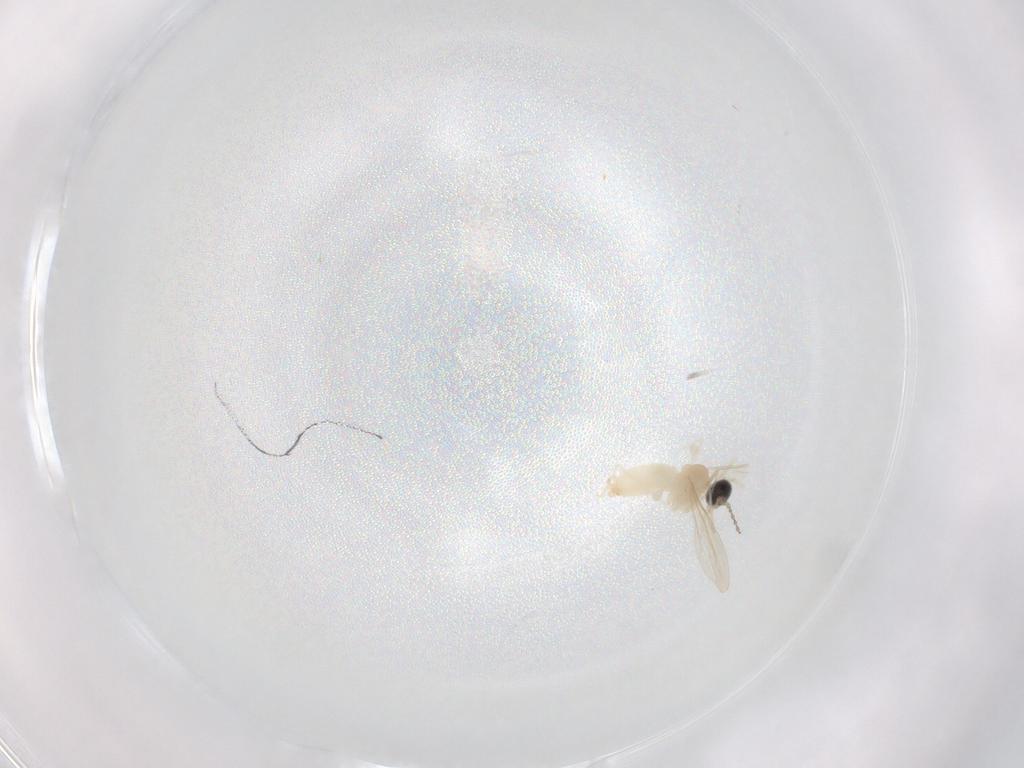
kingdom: Animalia
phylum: Arthropoda
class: Insecta
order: Diptera
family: Cecidomyiidae
